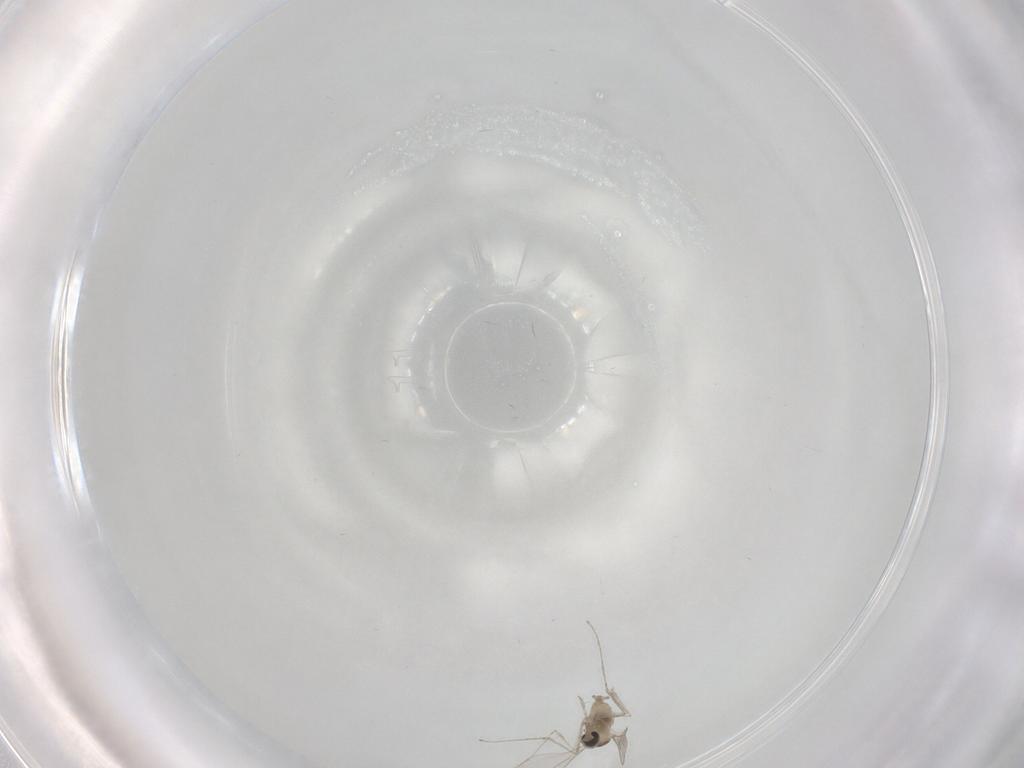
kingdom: Animalia
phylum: Arthropoda
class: Insecta
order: Diptera
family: Cecidomyiidae
